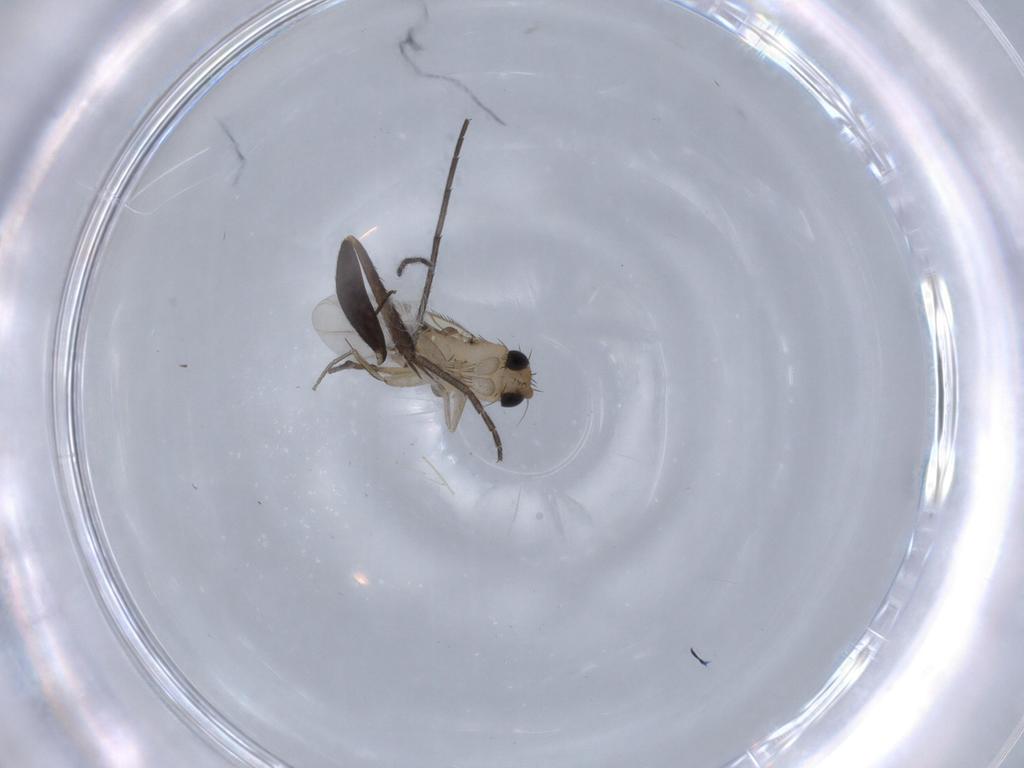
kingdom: Animalia
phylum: Arthropoda
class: Insecta
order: Diptera
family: Phoridae
